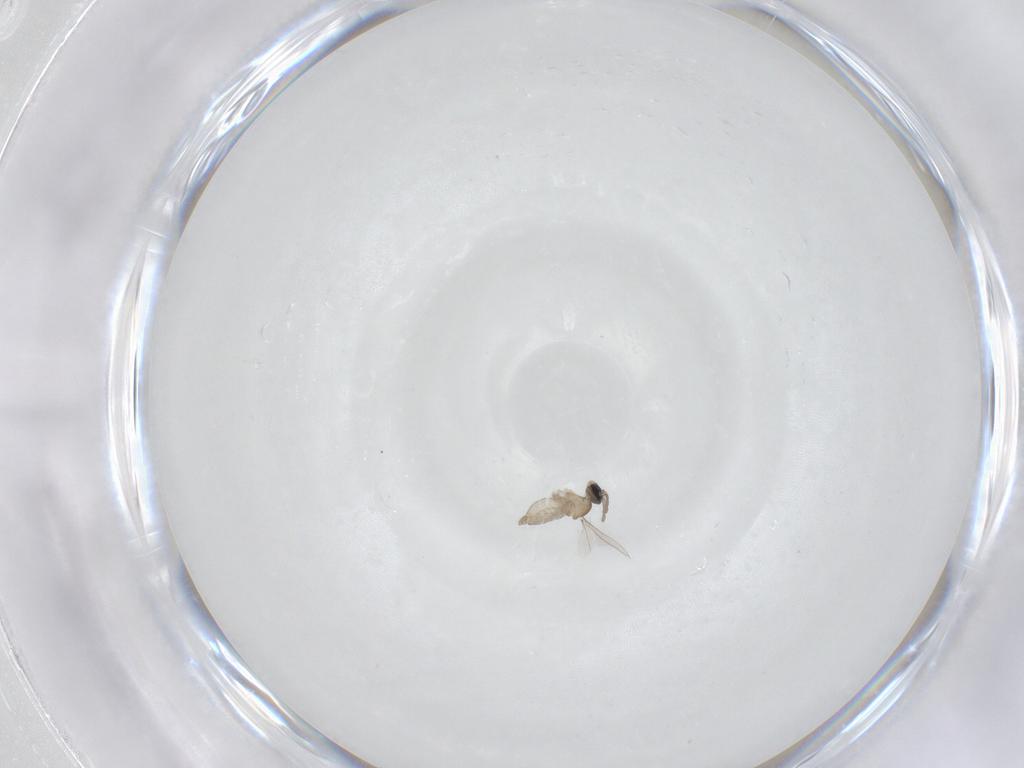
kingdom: Animalia
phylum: Arthropoda
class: Insecta
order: Diptera
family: Cecidomyiidae
